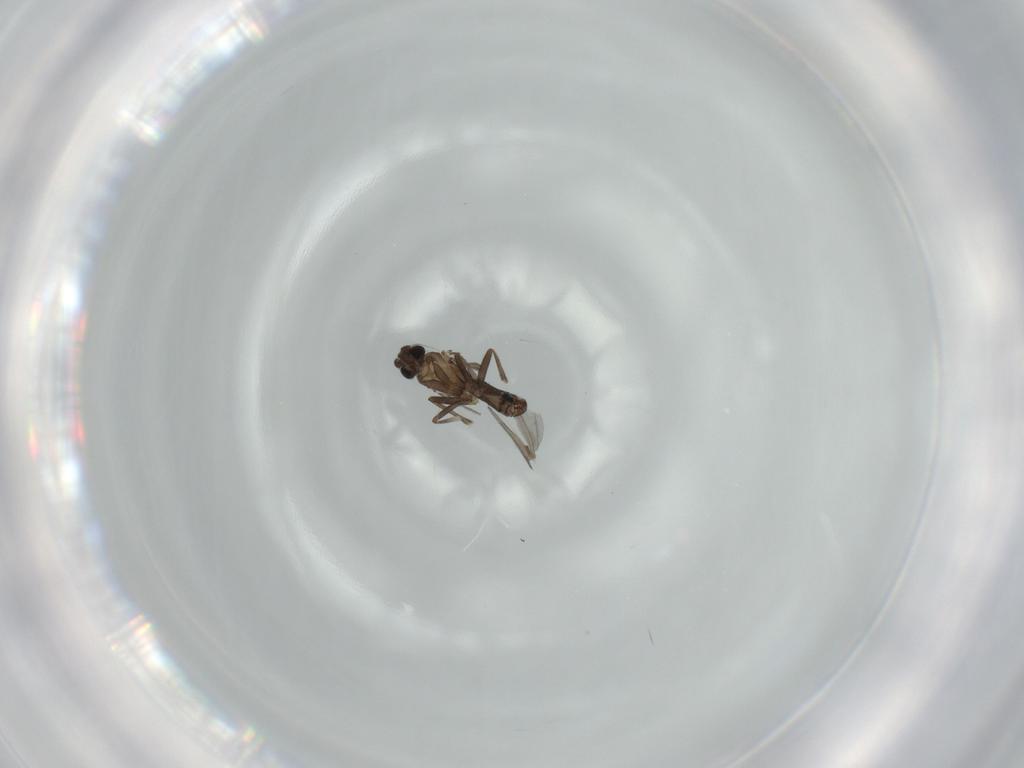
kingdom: Animalia
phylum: Arthropoda
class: Insecta
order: Diptera
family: Phoridae
